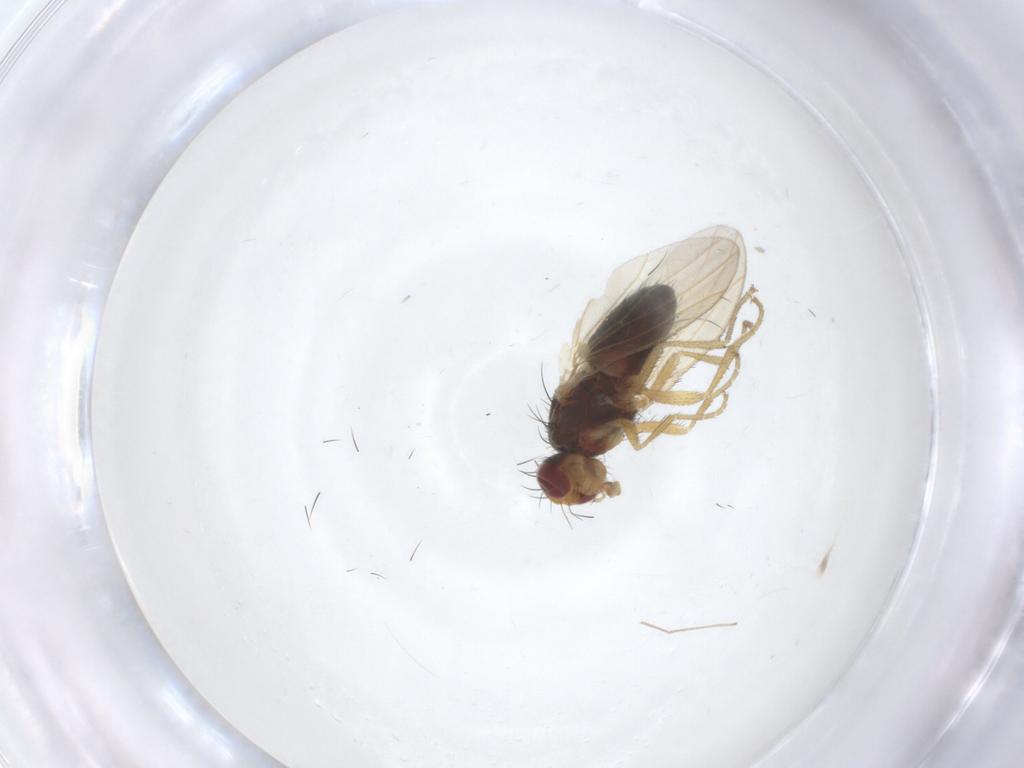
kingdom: Animalia
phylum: Arthropoda
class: Insecta
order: Diptera
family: Heleomyzidae
